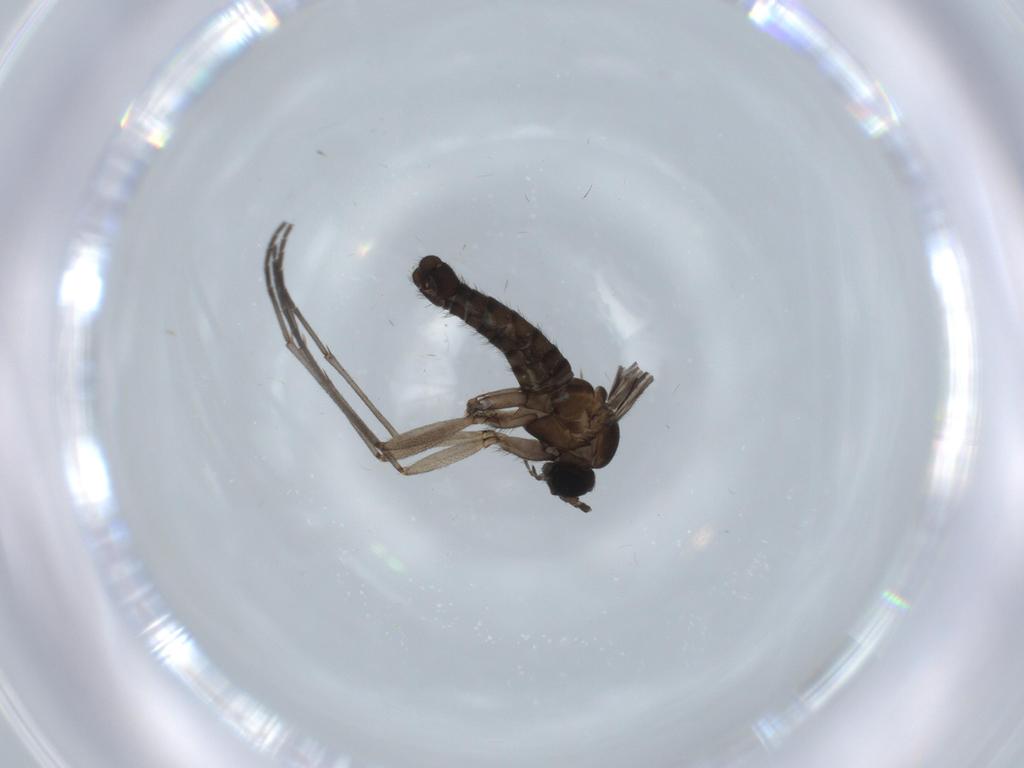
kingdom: Animalia
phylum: Arthropoda
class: Insecta
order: Diptera
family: Sciaridae
